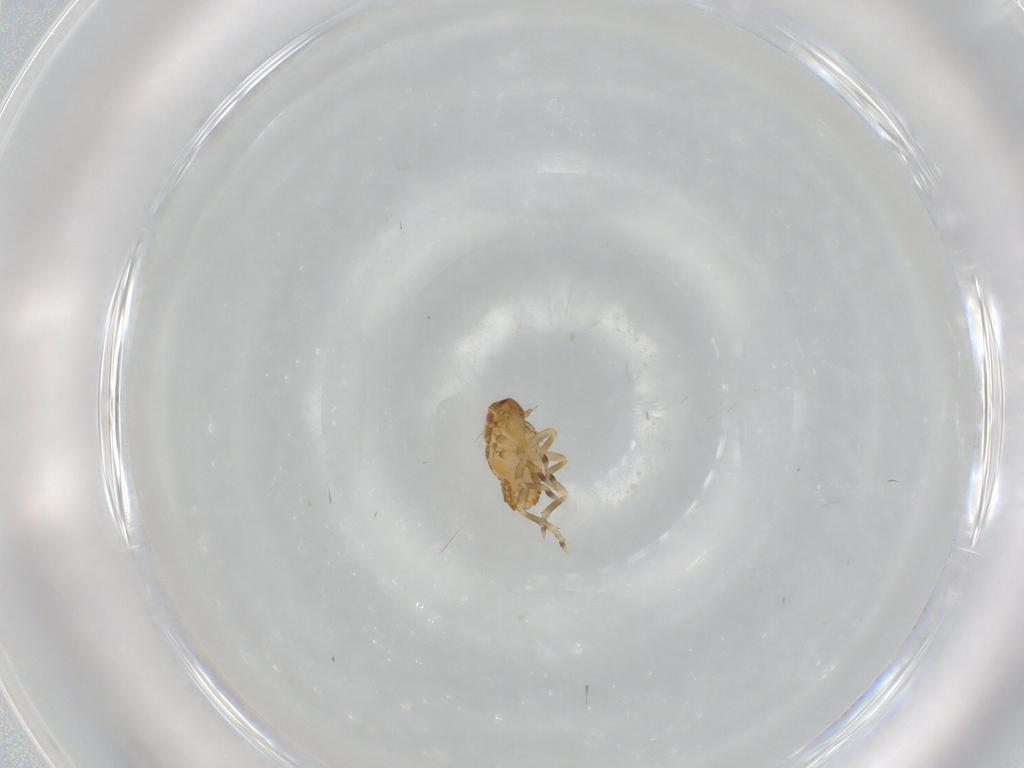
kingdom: Animalia
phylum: Arthropoda
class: Insecta
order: Hemiptera
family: Flatidae
